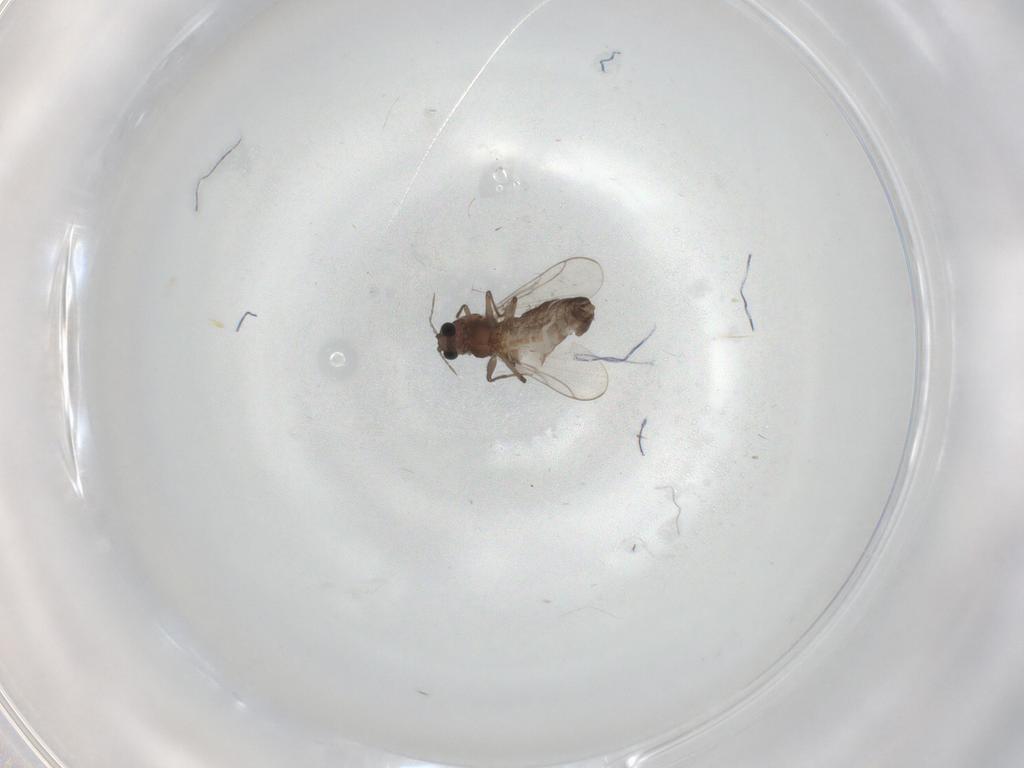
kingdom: Animalia
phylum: Arthropoda
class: Insecta
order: Diptera
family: Chironomidae
